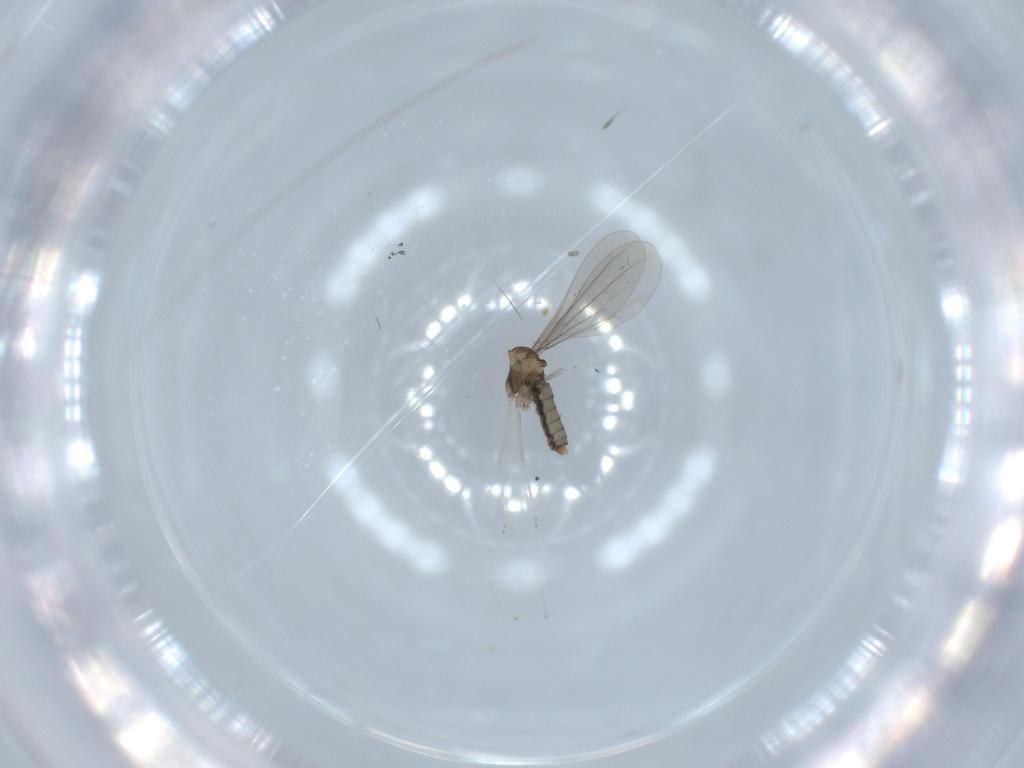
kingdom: Animalia
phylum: Arthropoda
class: Insecta
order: Diptera
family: Cecidomyiidae
